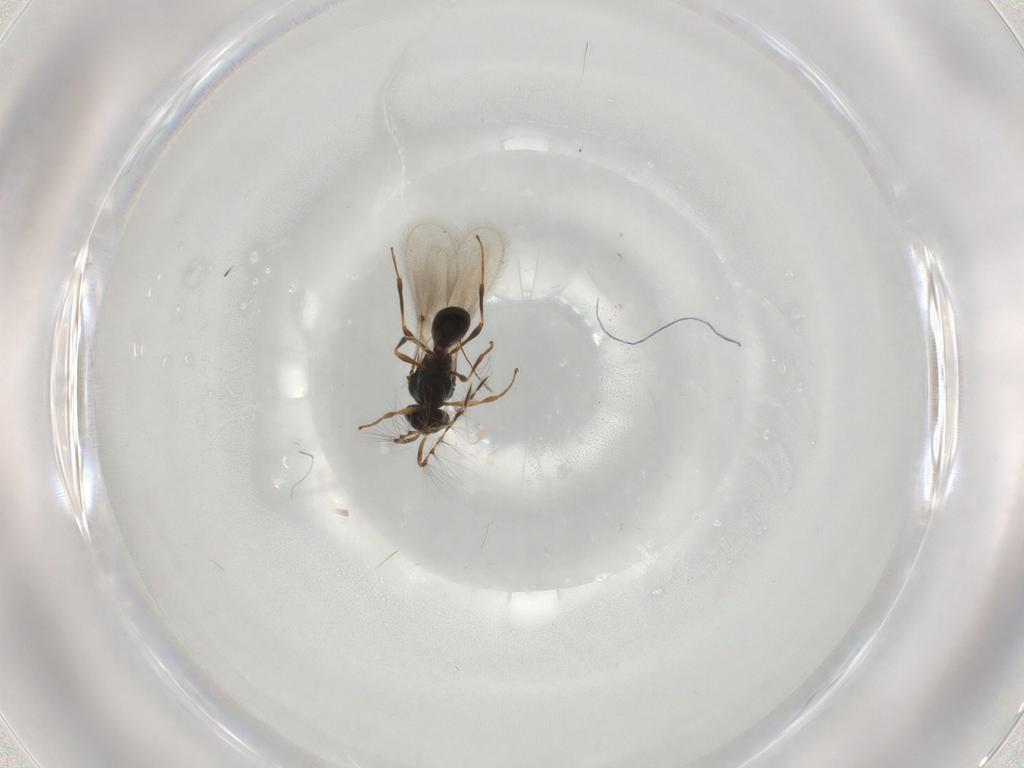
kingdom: Animalia
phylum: Arthropoda
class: Insecta
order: Hymenoptera
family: Platygastridae
